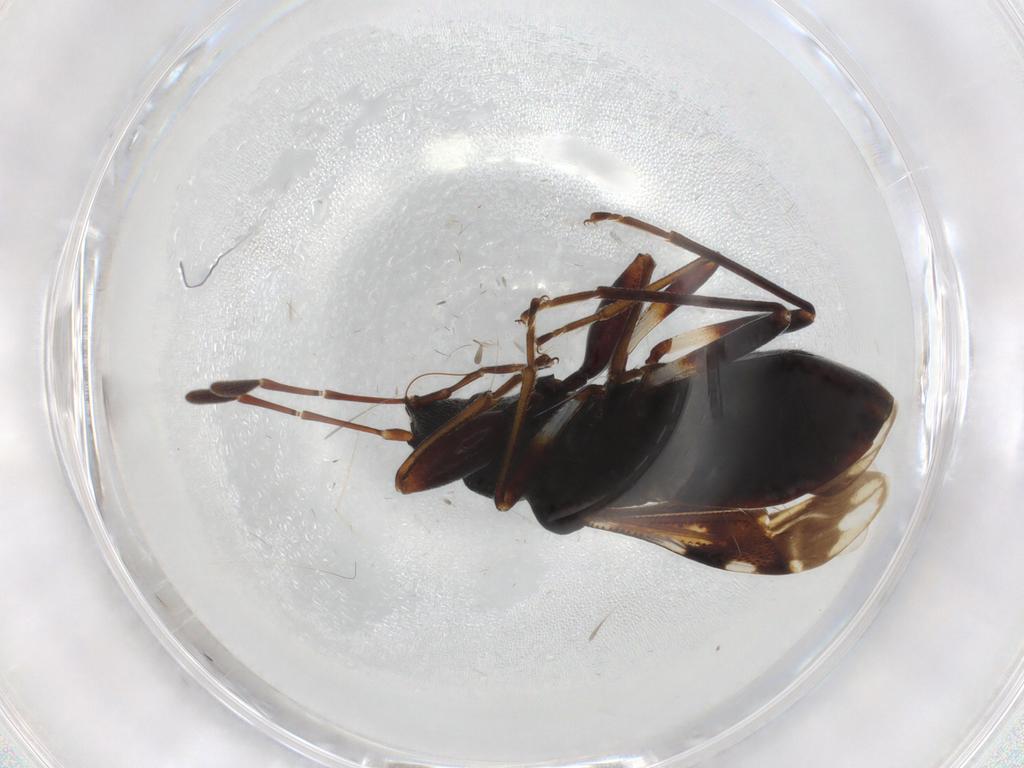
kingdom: Animalia
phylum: Arthropoda
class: Insecta
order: Hemiptera
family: Rhyparochromidae
